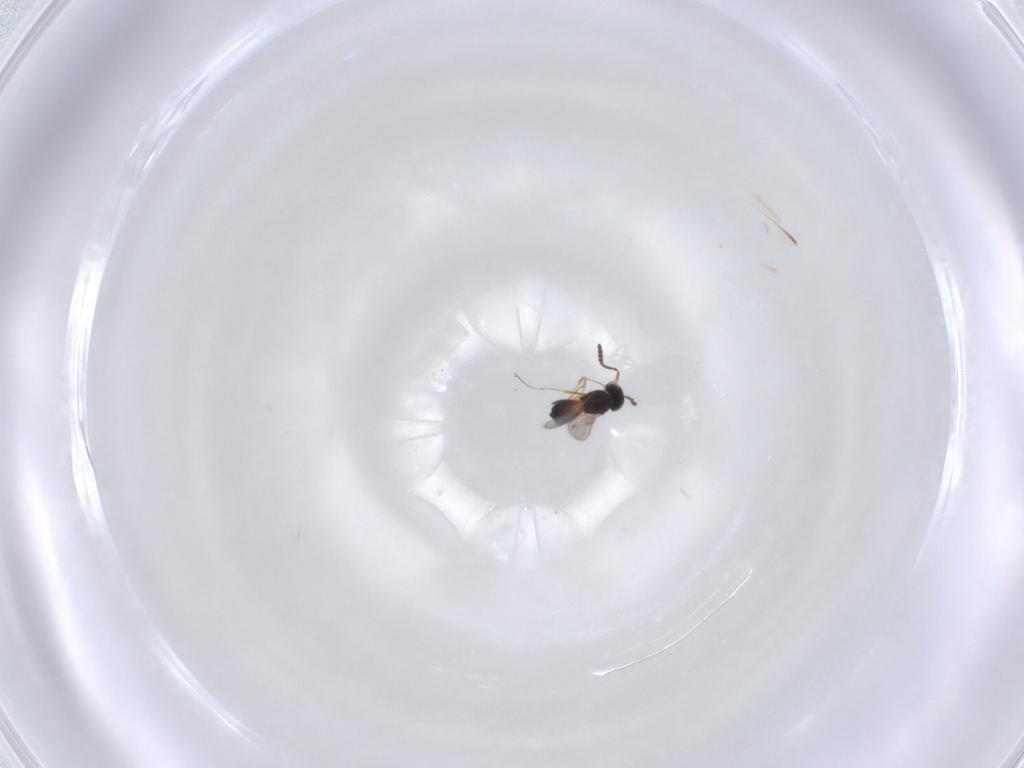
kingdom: Animalia
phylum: Arthropoda
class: Insecta
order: Hymenoptera
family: Scelionidae
